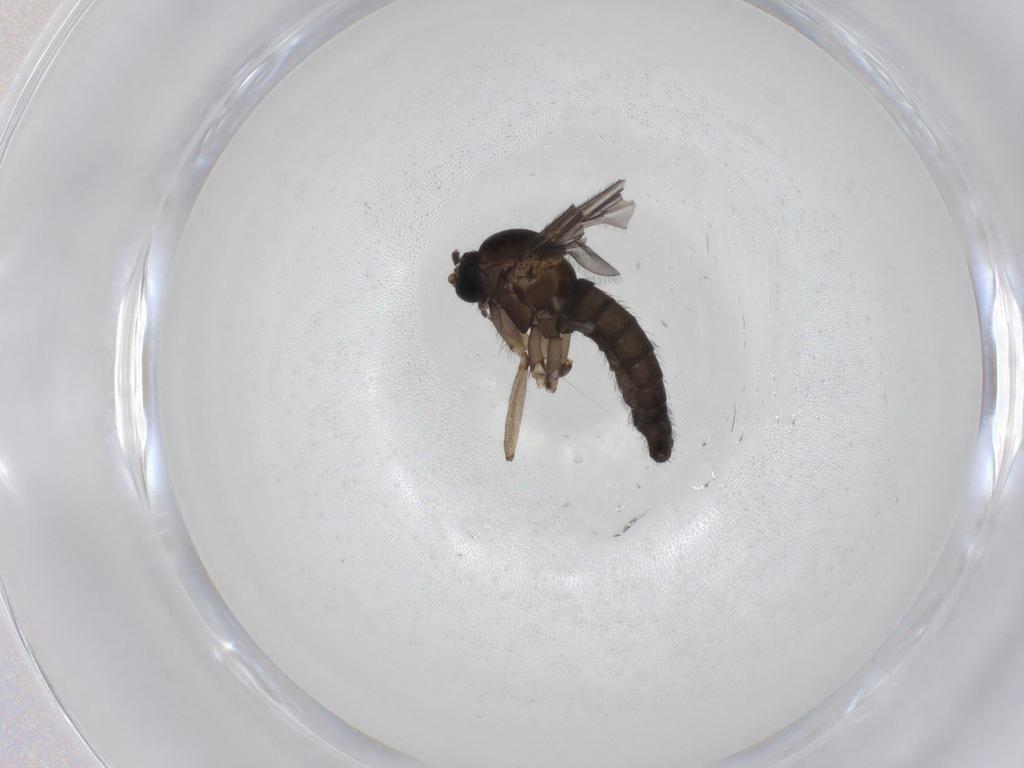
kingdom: Animalia
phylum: Arthropoda
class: Insecta
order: Diptera
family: Sciaridae
